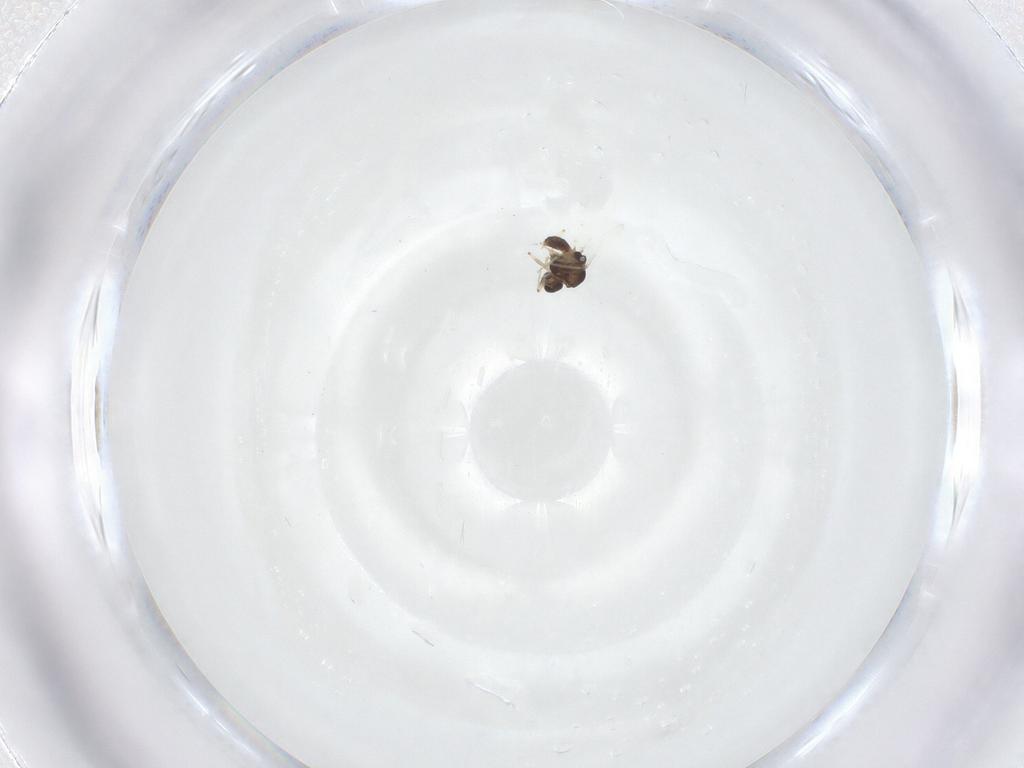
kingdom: Animalia
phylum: Arthropoda
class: Insecta
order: Diptera
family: Chironomidae
